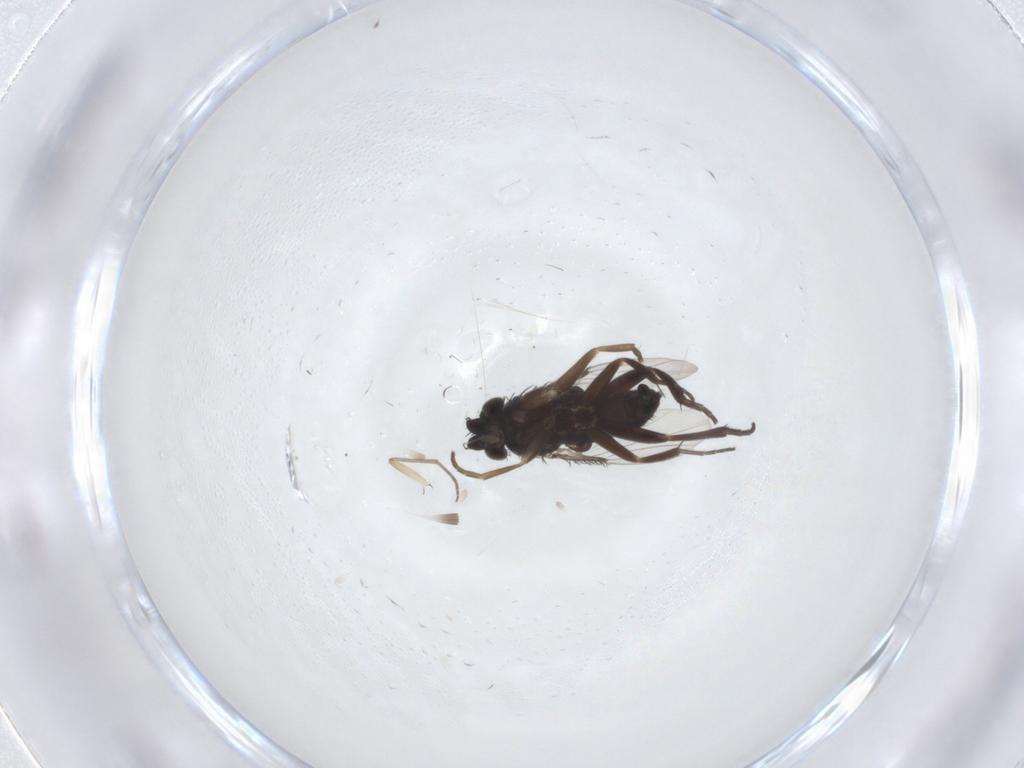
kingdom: Animalia
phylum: Arthropoda
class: Insecta
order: Diptera
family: Sciaridae
